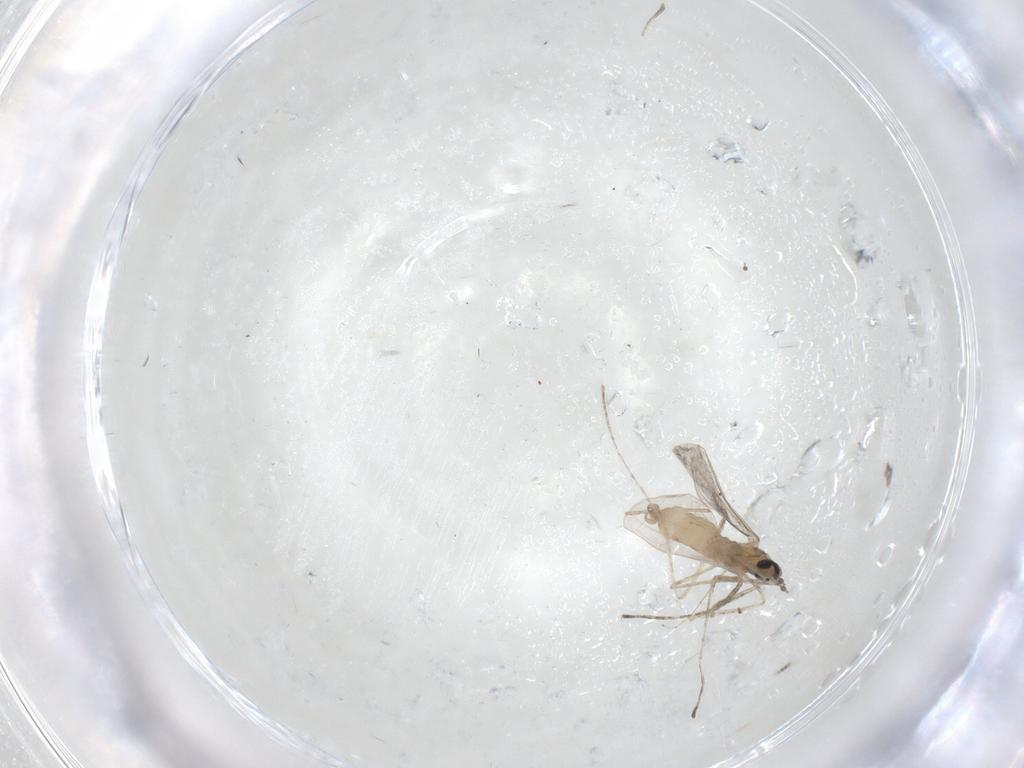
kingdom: Animalia
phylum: Arthropoda
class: Insecta
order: Diptera
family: Cecidomyiidae
